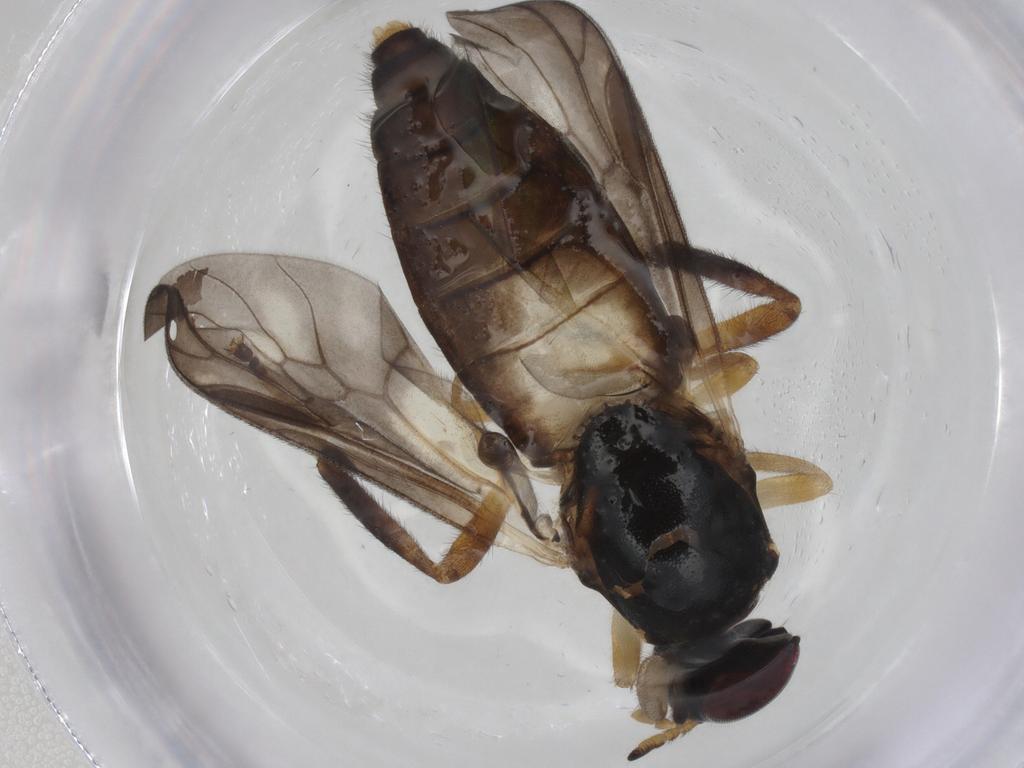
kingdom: Animalia
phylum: Arthropoda
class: Insecta
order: Diptera
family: Stratiomyidae
